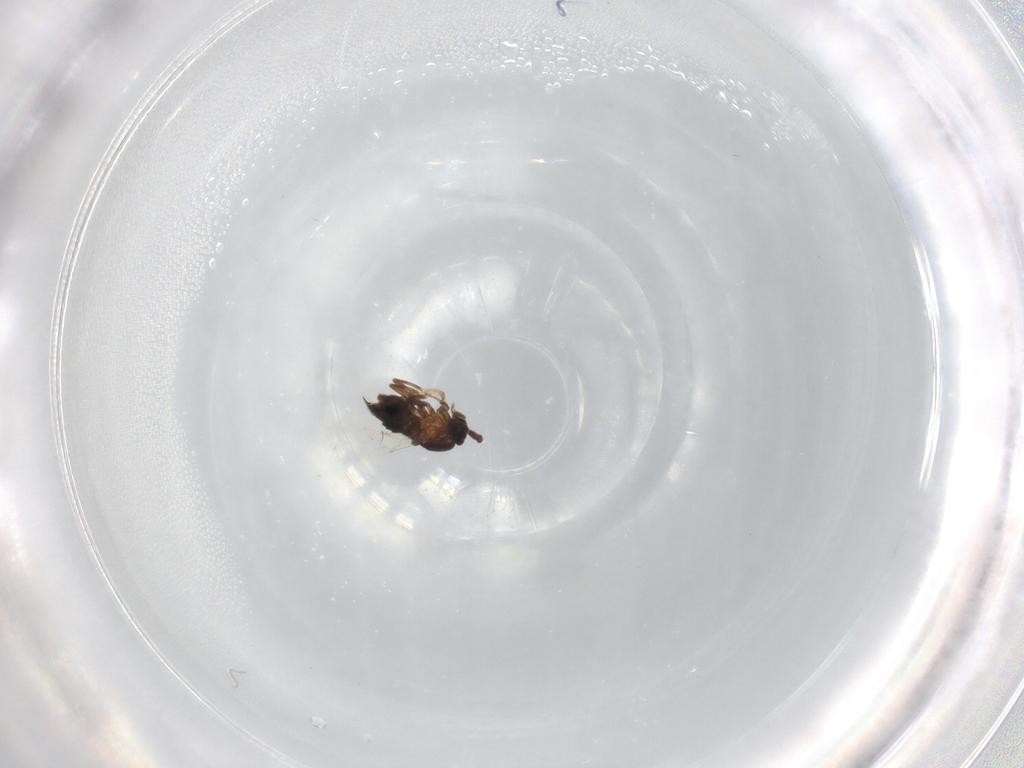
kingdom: Animalia
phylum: Arthropoda
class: Insecta
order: Diptera
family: Scatopsidae
